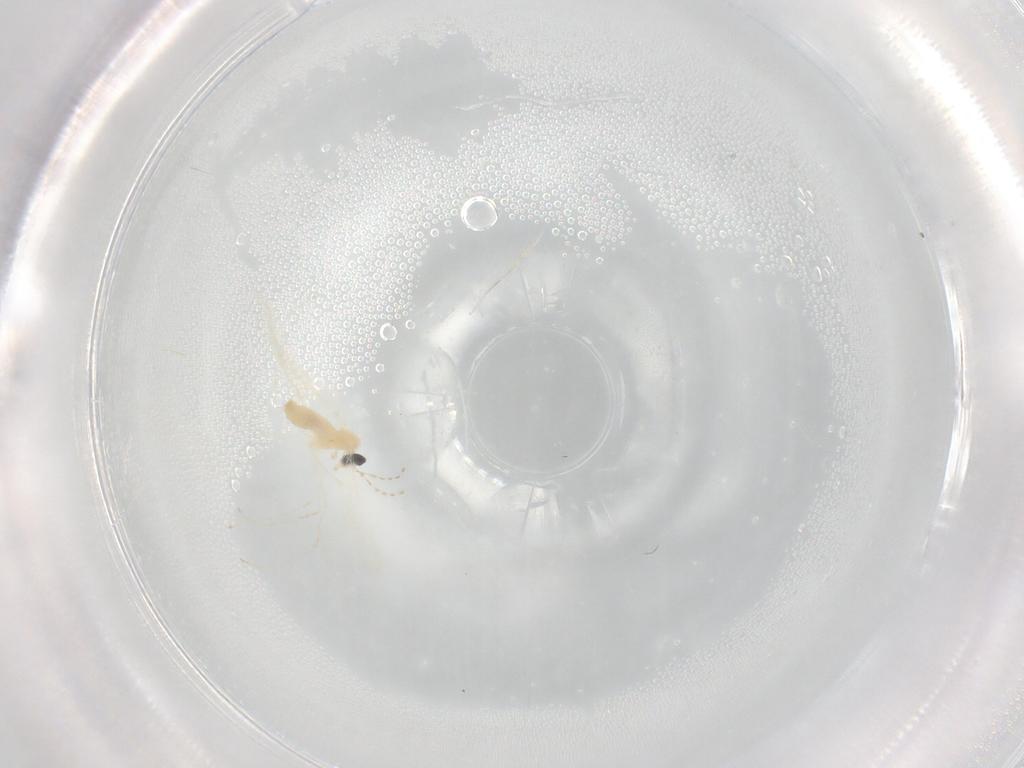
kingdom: Animalia
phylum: Arthropoda
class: Insecta
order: Diptera
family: Cecidomyiidae
